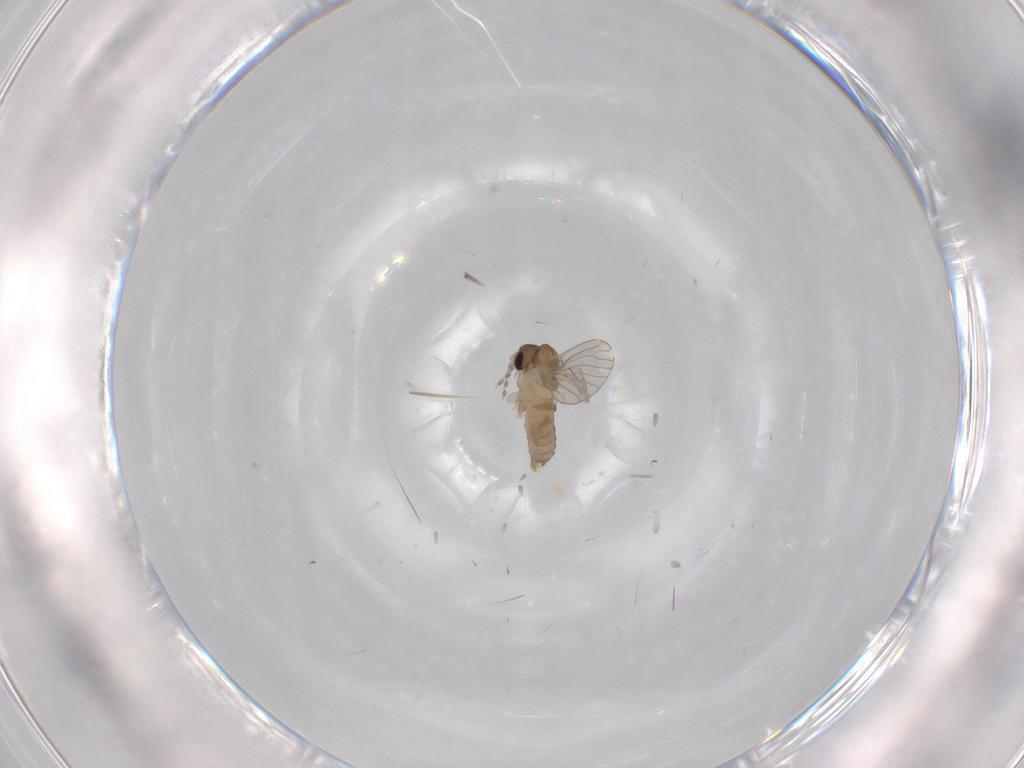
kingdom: Animalia
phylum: Arthropoda
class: Insecta
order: Diptera
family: Psychodidae
